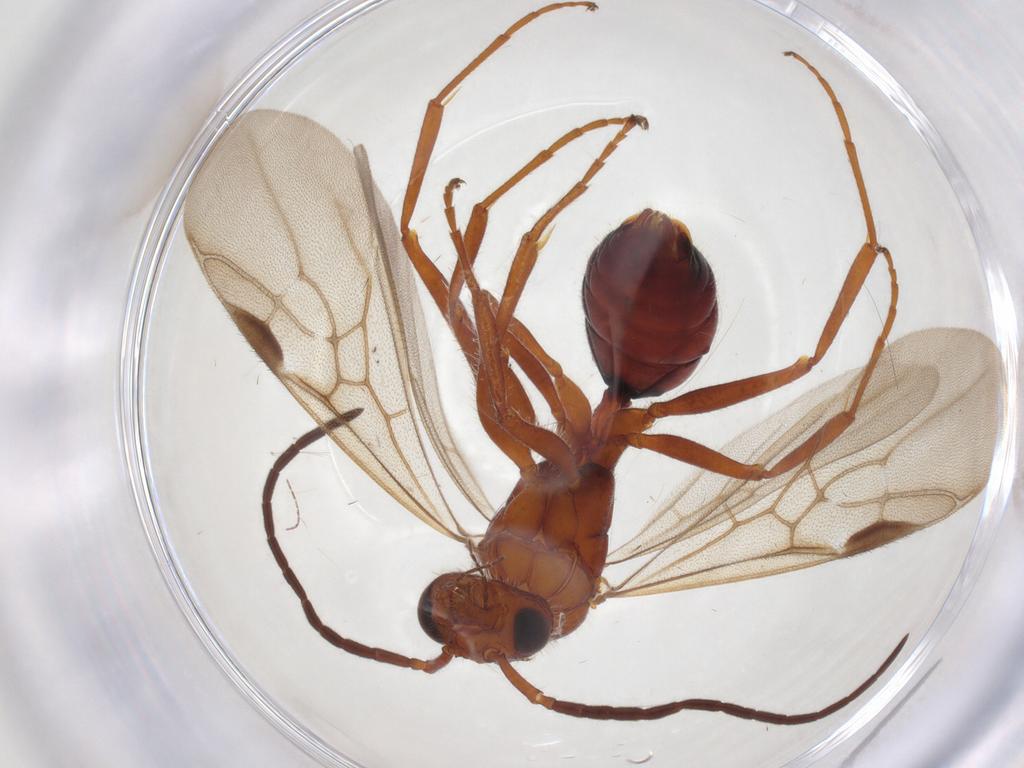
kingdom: Animalia
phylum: Arthropoda
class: Insecta
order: Hymenoptera
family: Formicidae
